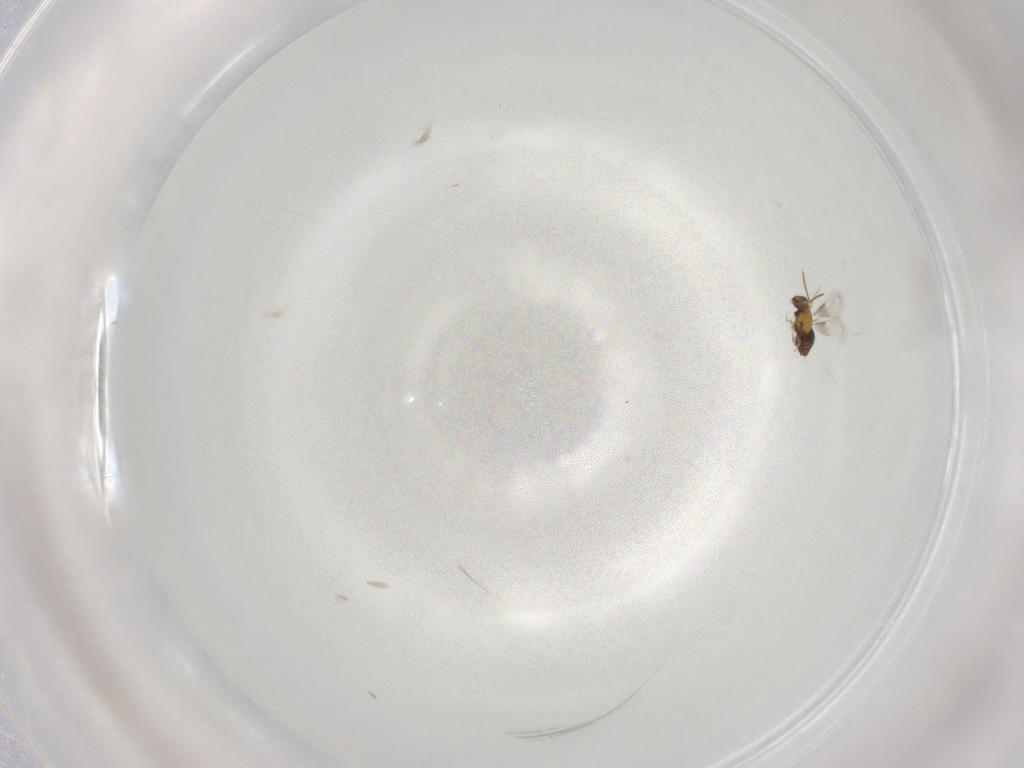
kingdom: Animalia
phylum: Arthropoda
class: Insecta
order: Hymenoptera
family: Aphelinidae
